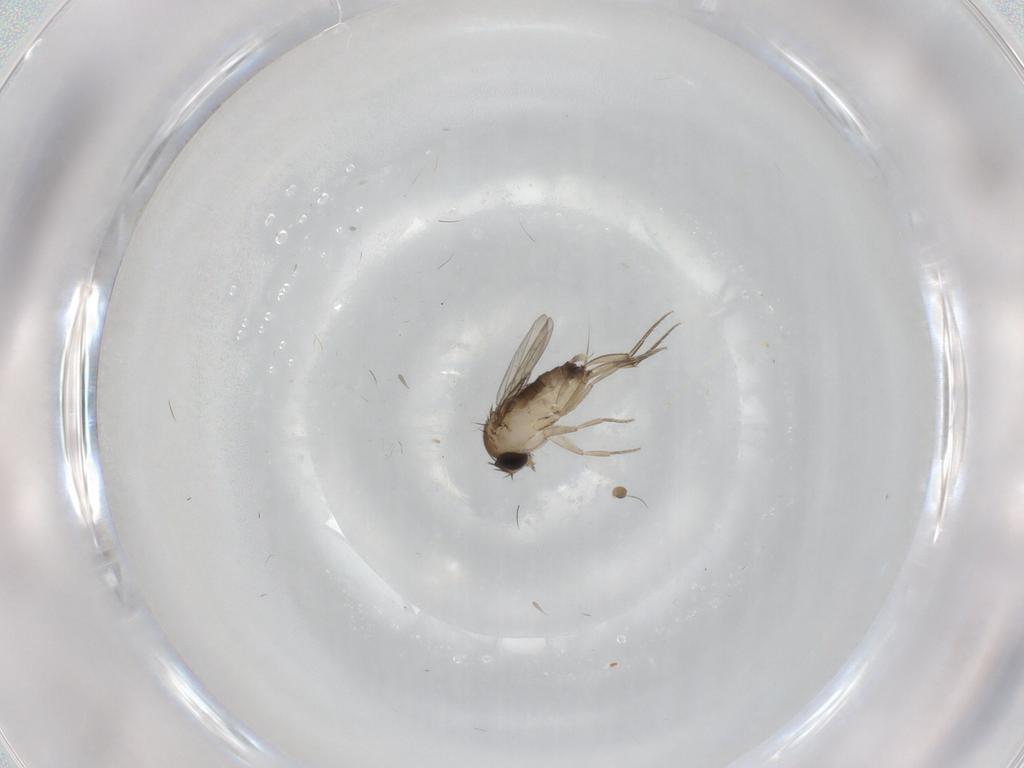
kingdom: Animalia
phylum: Arthropoda
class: Insecta
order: Diptera
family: Phoridae
